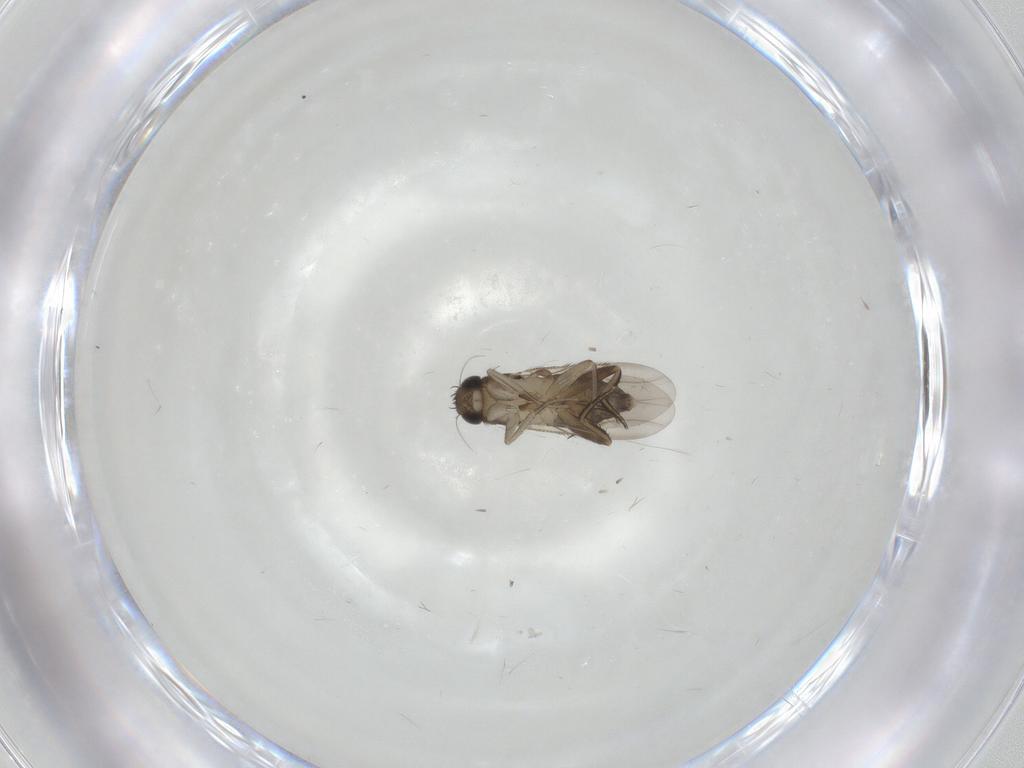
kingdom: Animalia
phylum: Arthropoda
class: Insecta
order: Diptera
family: Phoridae
